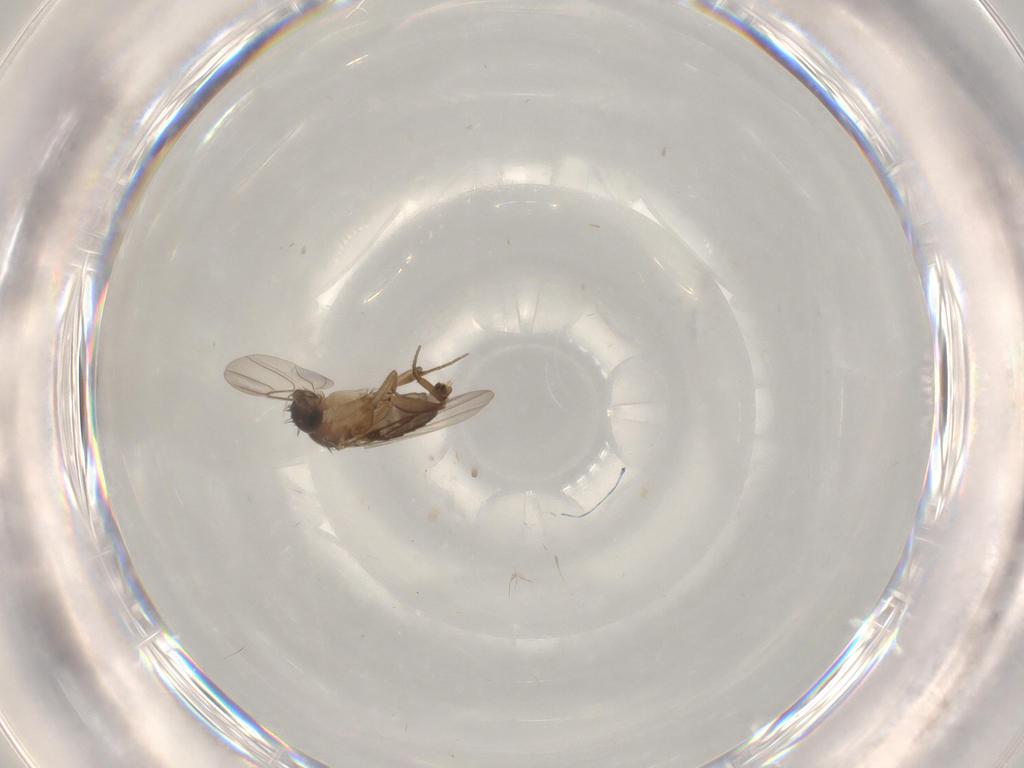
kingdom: Animalia
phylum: Arthropoda
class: Insecta
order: Diptera
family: Chironomidae
